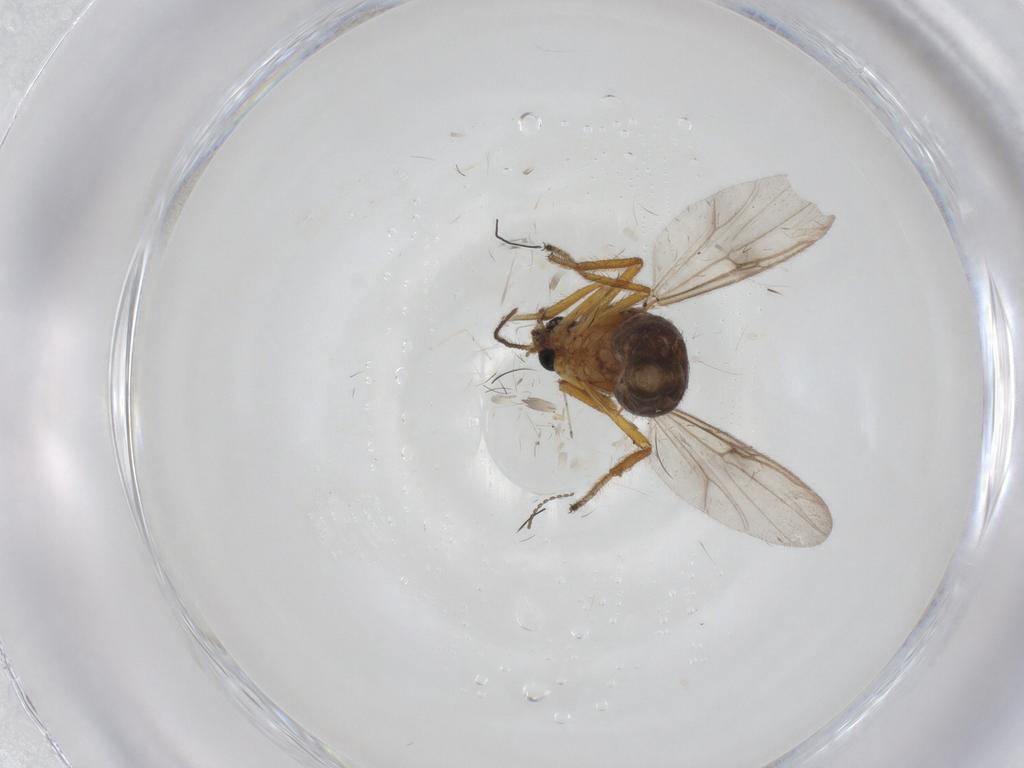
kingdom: Animalia
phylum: Arthropoda
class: Insecta
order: Diptera
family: Ceratopogonidae
